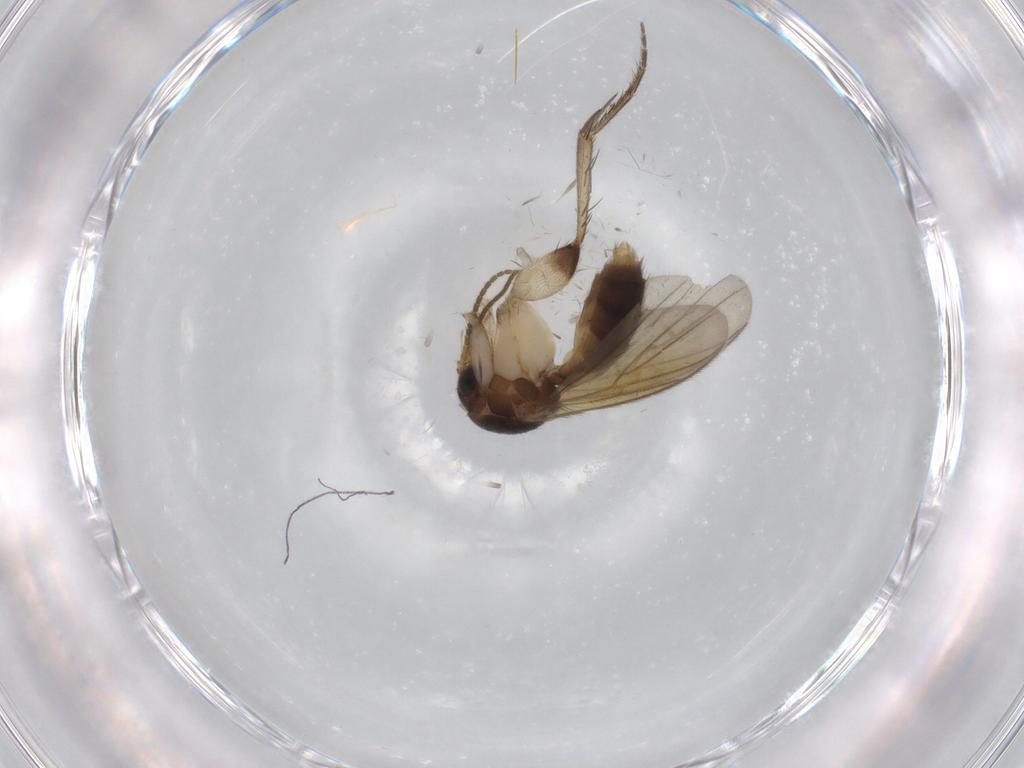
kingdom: Animalia
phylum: Arthropoda
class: Insecta
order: Diptera
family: Mycetophilidae
